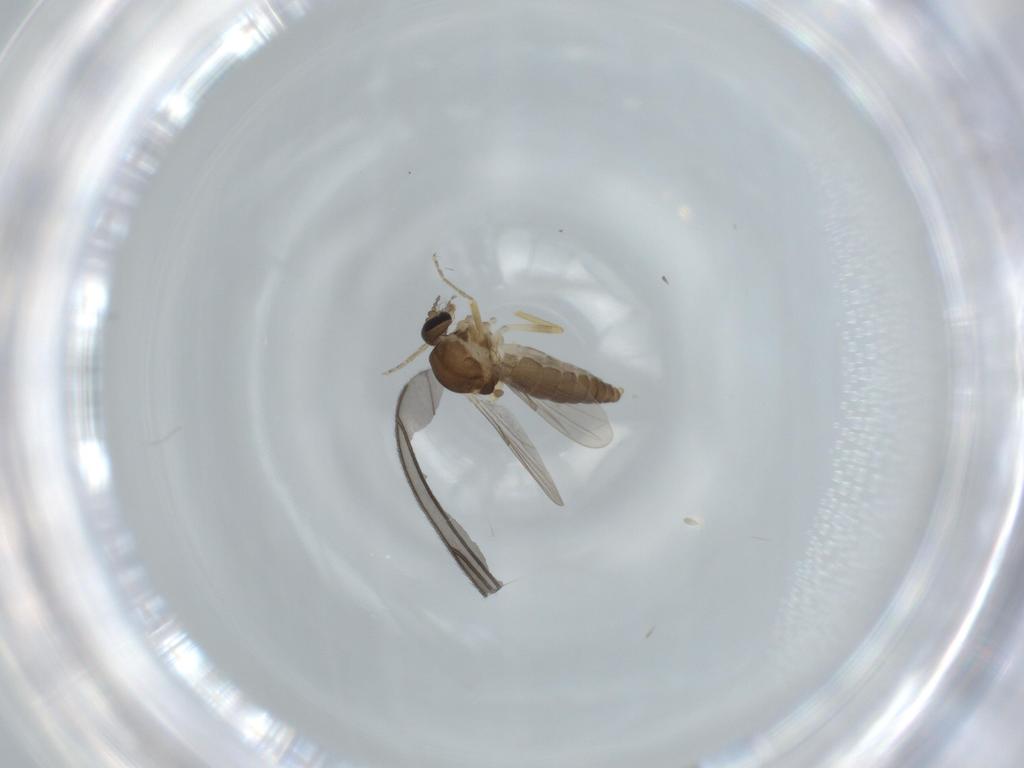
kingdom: Animalia
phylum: Arthropoda
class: Insecta
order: Diptera
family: Ceratopogonidae
